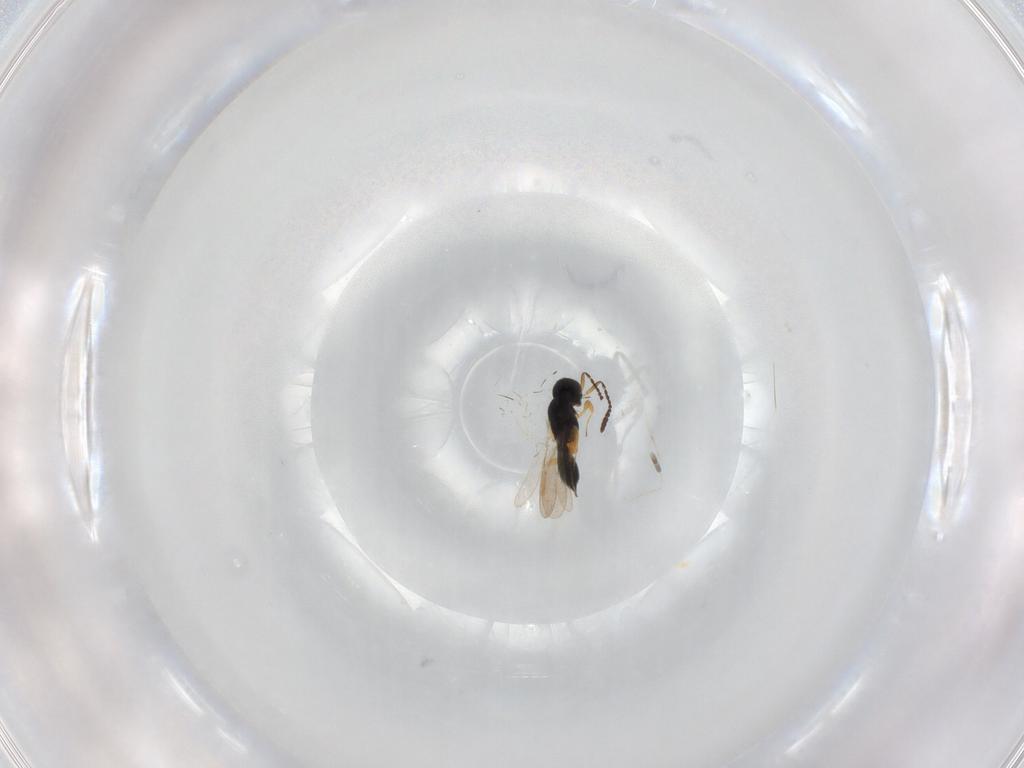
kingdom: Animalia
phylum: Arthropoda
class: Insecta
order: Hymenoptera
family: Scelionidae
